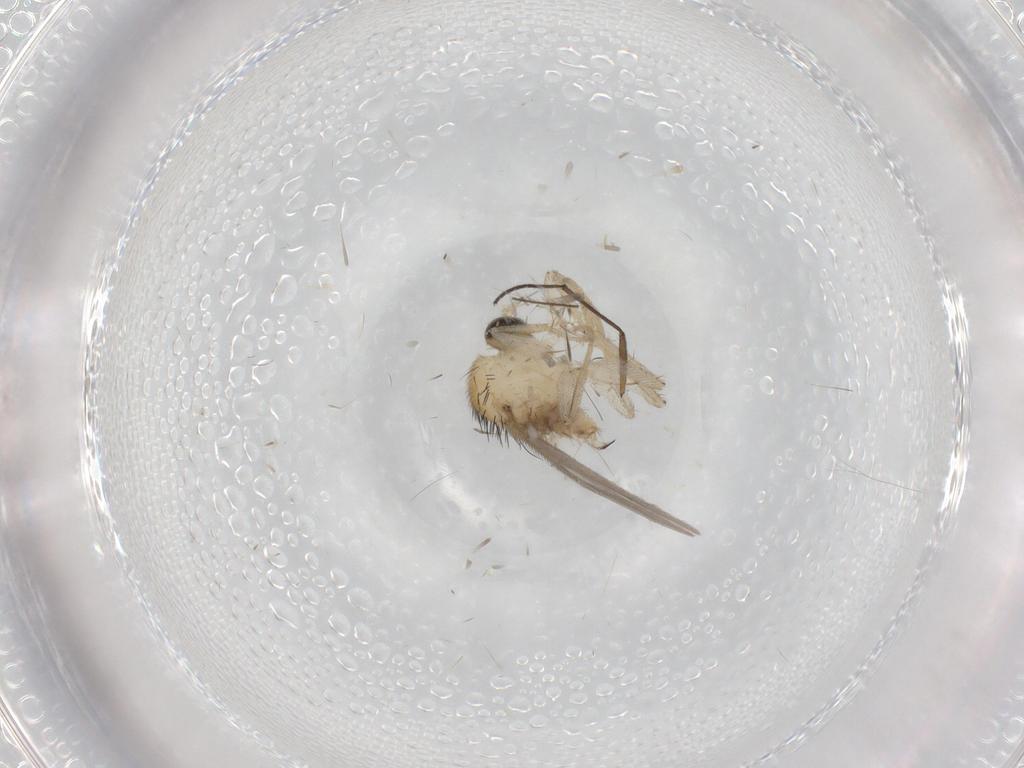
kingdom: Animalia
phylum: Arthropoda
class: Insecta
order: Diptera
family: Hybotidae
